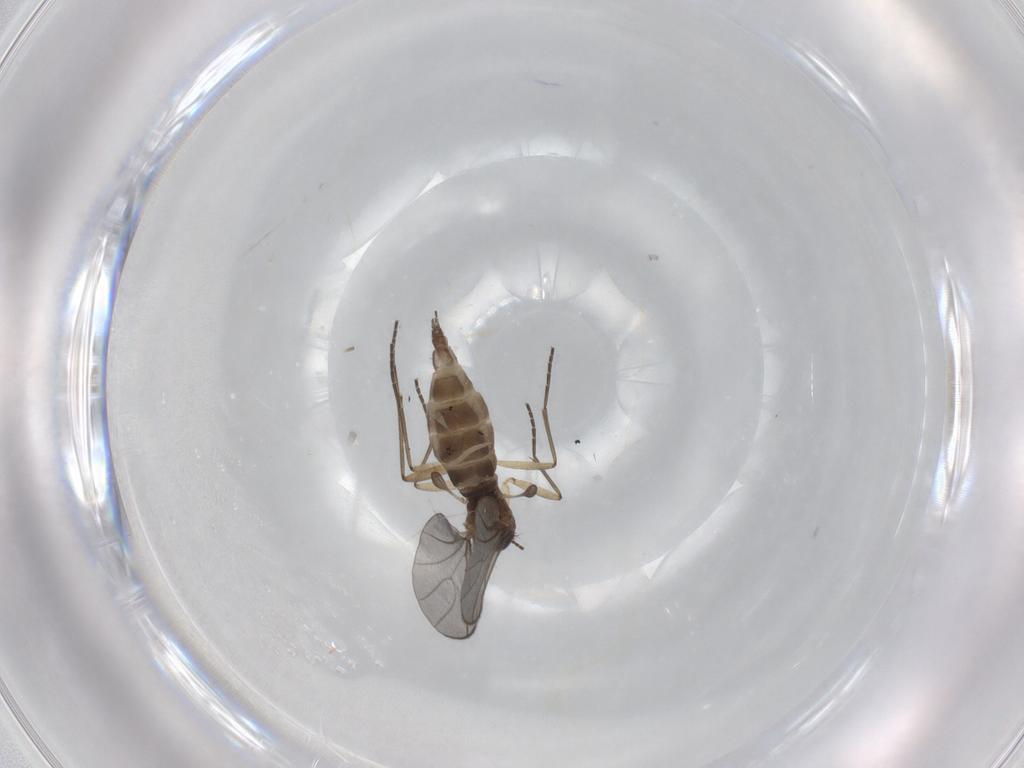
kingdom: Animalia
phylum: Arthropoda
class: Insecta
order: Diptera
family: Sciaridae
